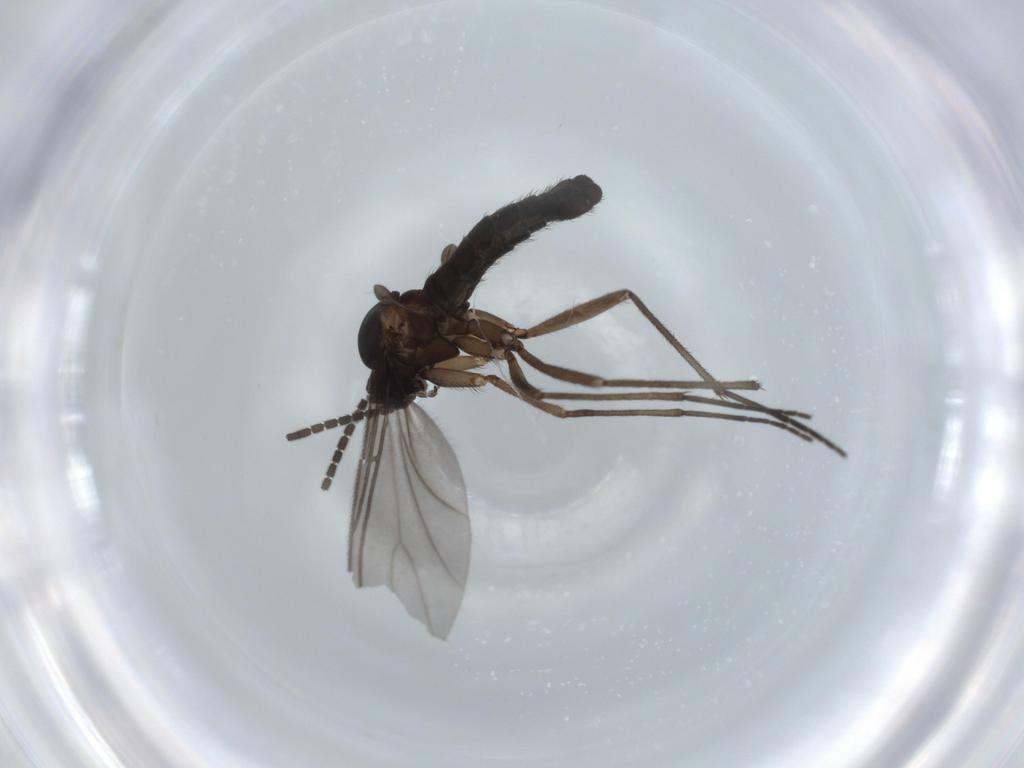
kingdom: Animalia
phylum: Arthropoda
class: Insecta
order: Diptera
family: Sciaridae
